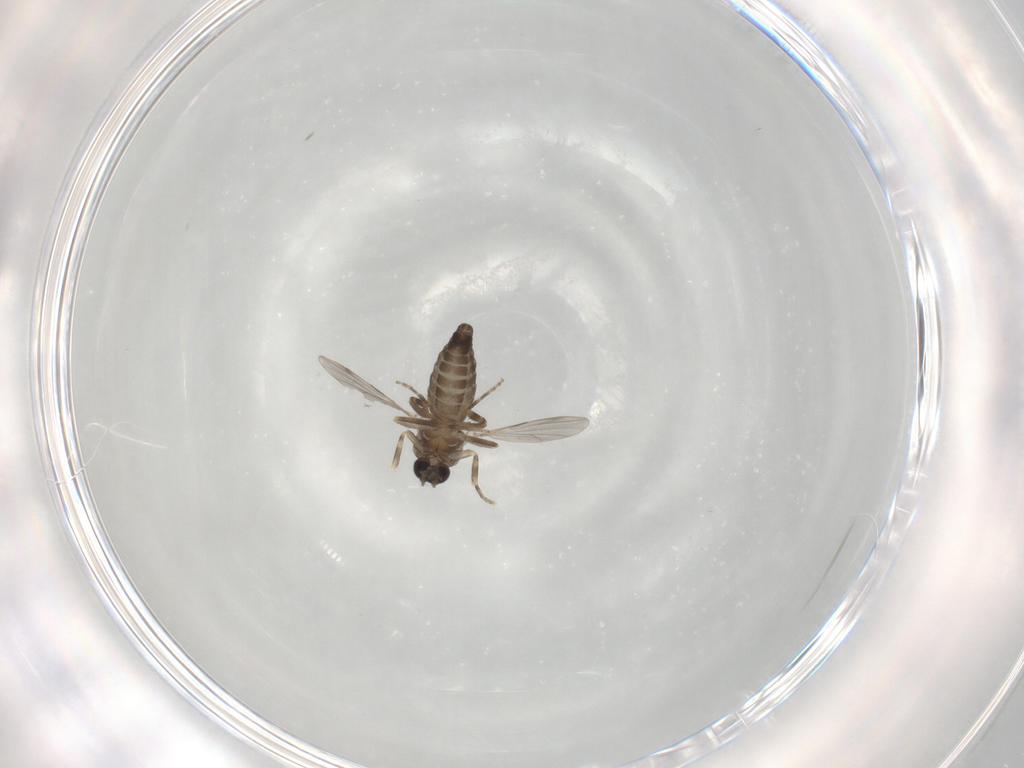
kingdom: Animalia
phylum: Arthropoda
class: Insecta
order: Diptera
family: Ceratopogonidae
